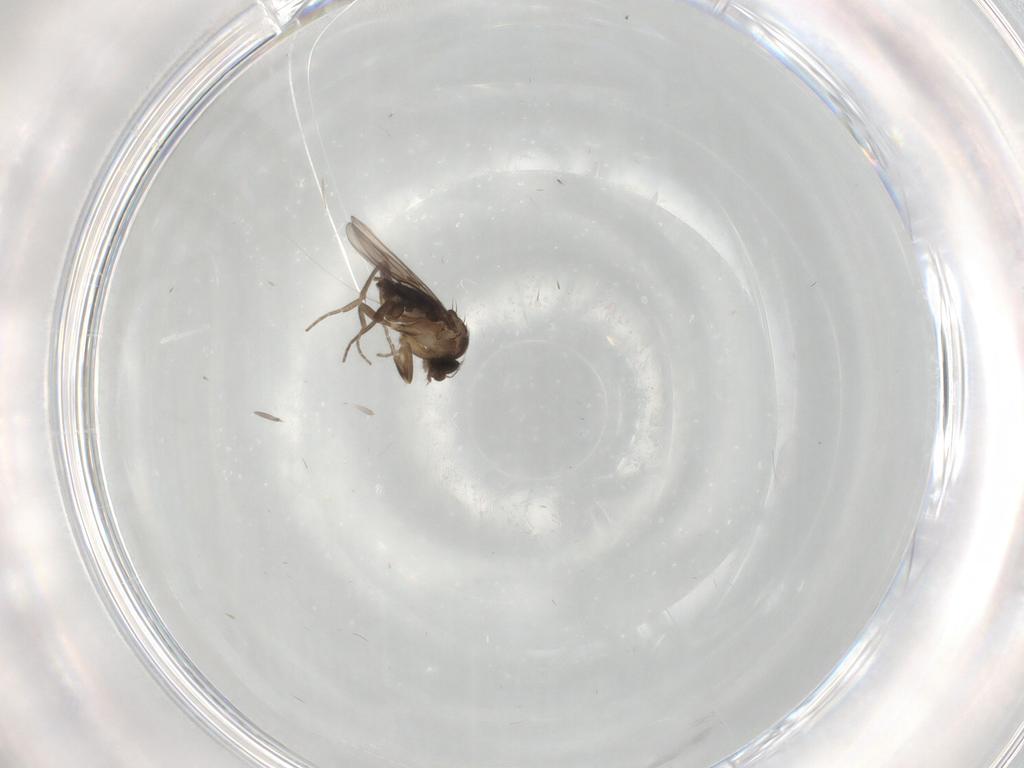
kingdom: Animalia
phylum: Arthropoda
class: Insecta
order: Diptera
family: Phoridae
